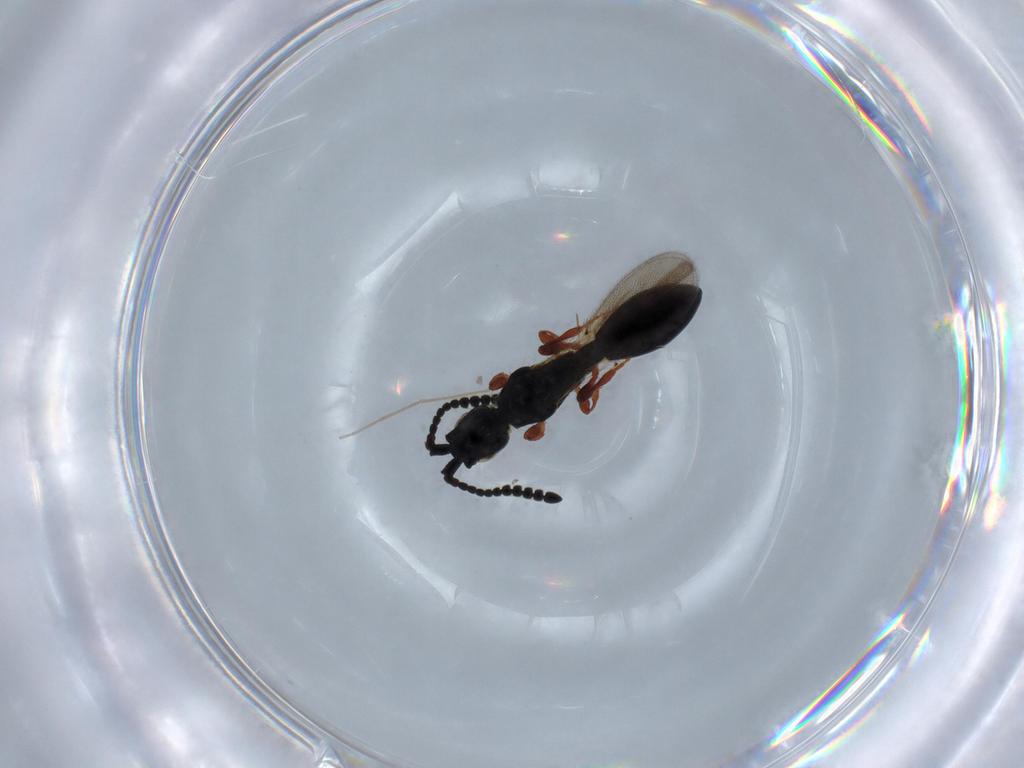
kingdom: Animalia
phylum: Arthropoda
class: Insecta
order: Hymenoptera
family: Diapriidae
